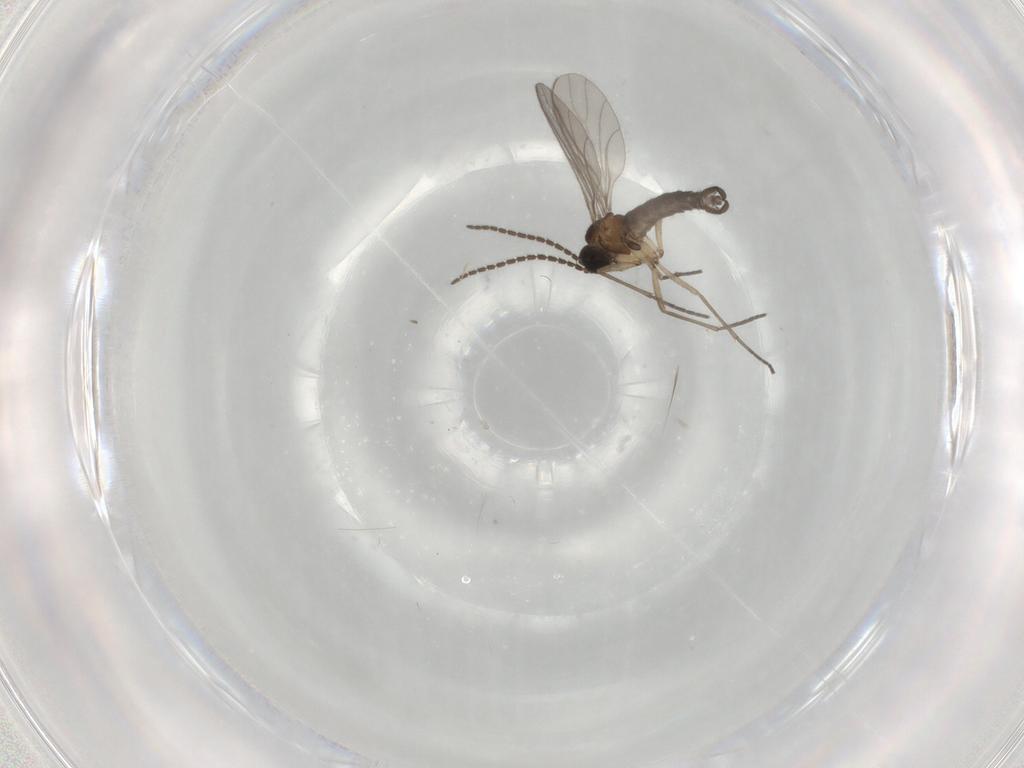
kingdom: Animalia
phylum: Arthropoda
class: Insecta
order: Diptera
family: Sciaridae
